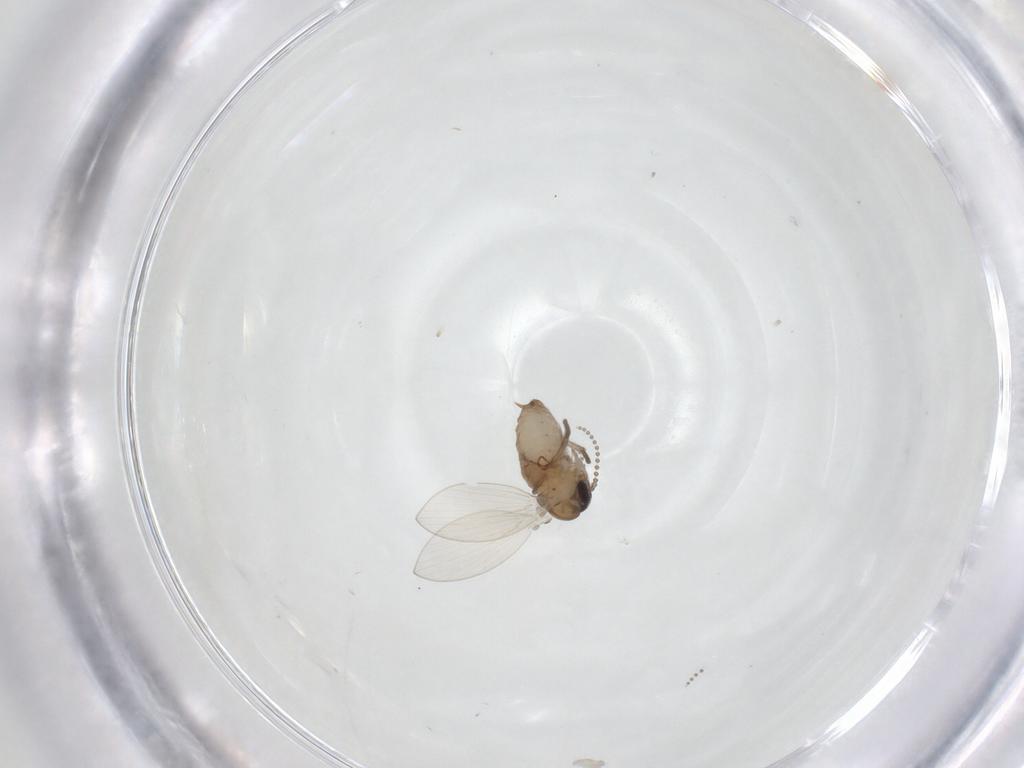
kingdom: Animalia
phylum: Arthropoda
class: Insecta
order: Diptera
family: Psychodidae
